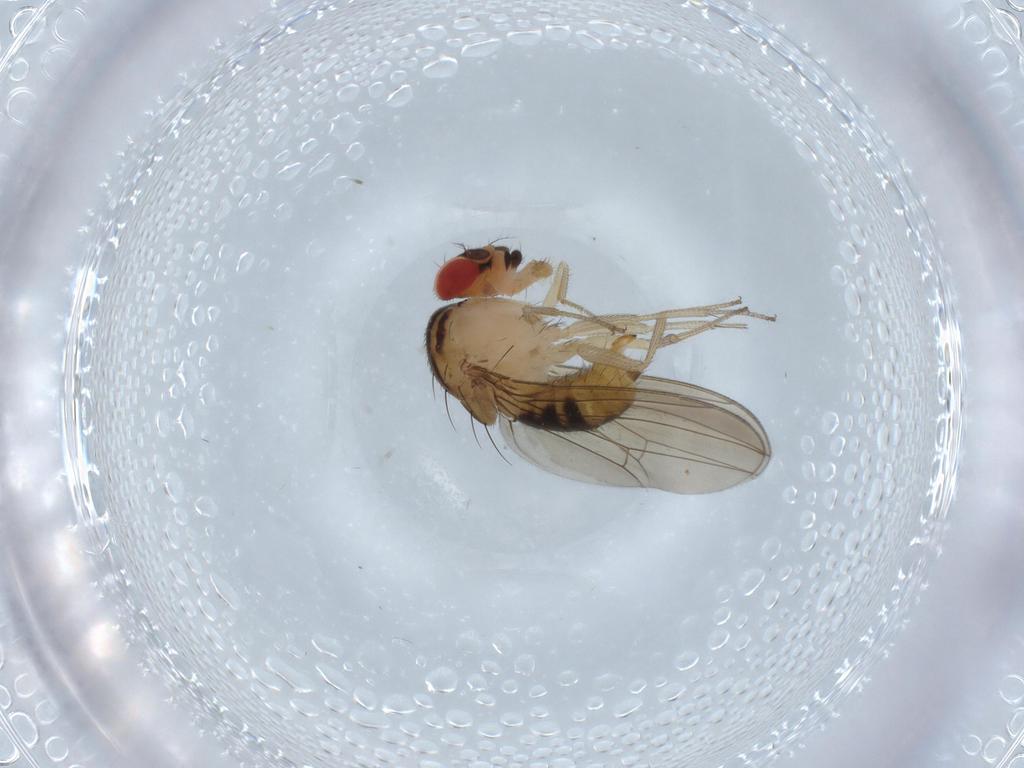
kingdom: Animalia
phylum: Arthropoda
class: Insecta
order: Diptera
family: Drosophilidae
